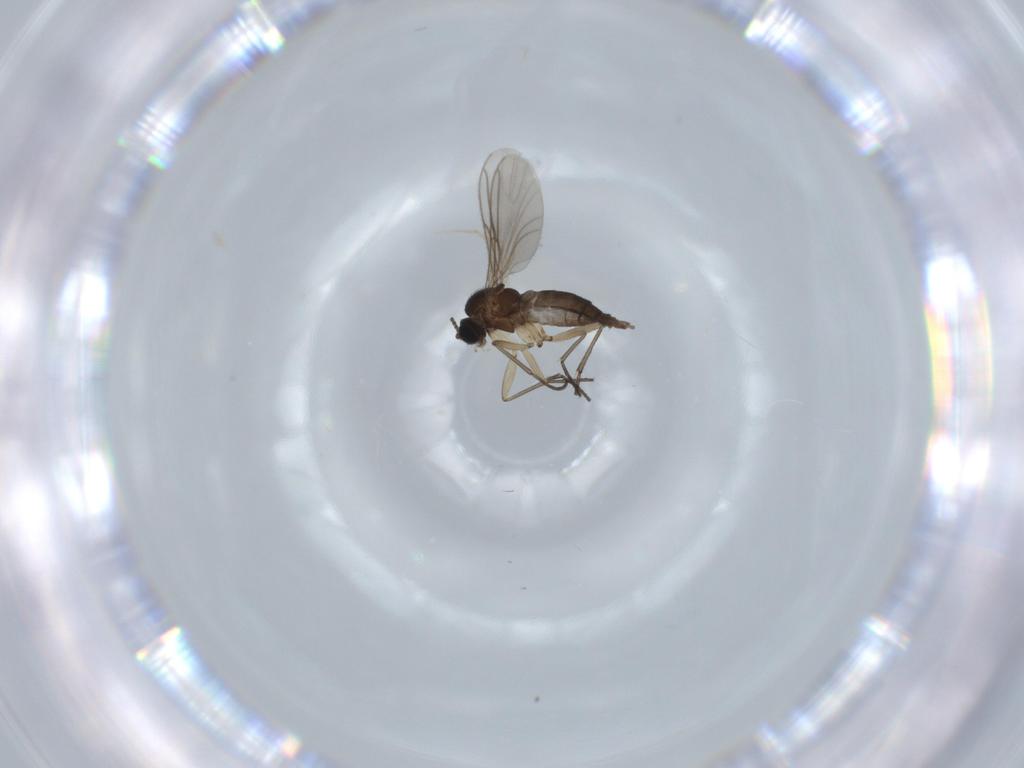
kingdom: Animalia
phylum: Arthropoda
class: Insecta
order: Diptera
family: Sciaridae
